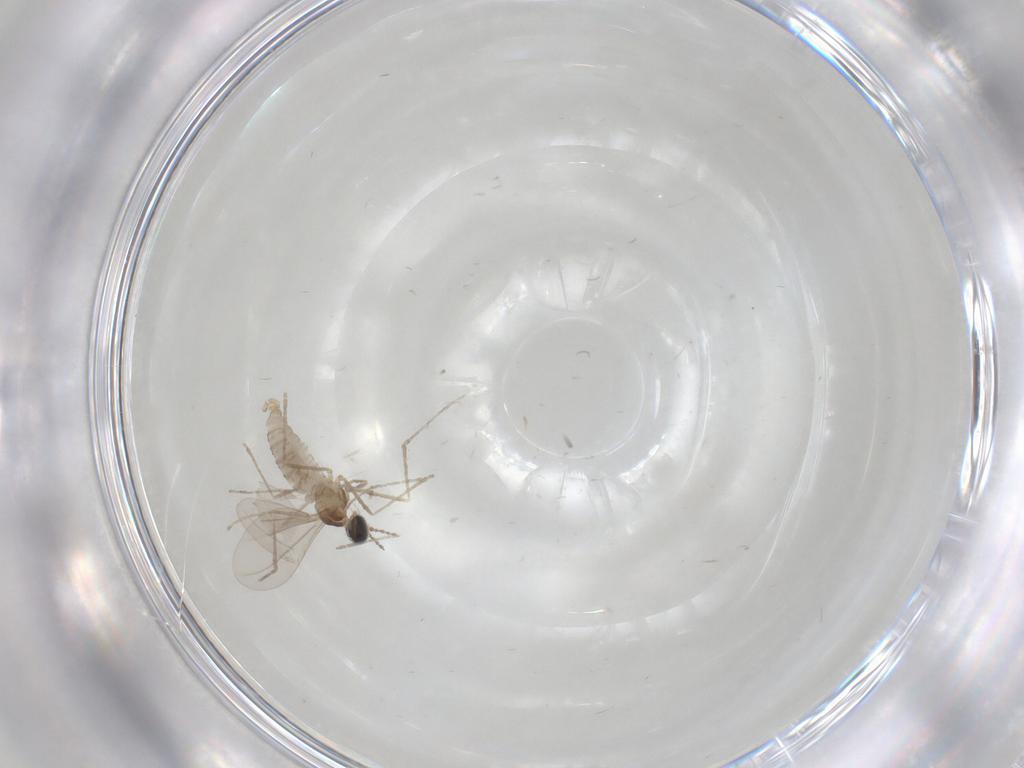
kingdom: Animalia
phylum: Arthropoda
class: Insecta
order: Diptera
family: Cecidomyiidae
